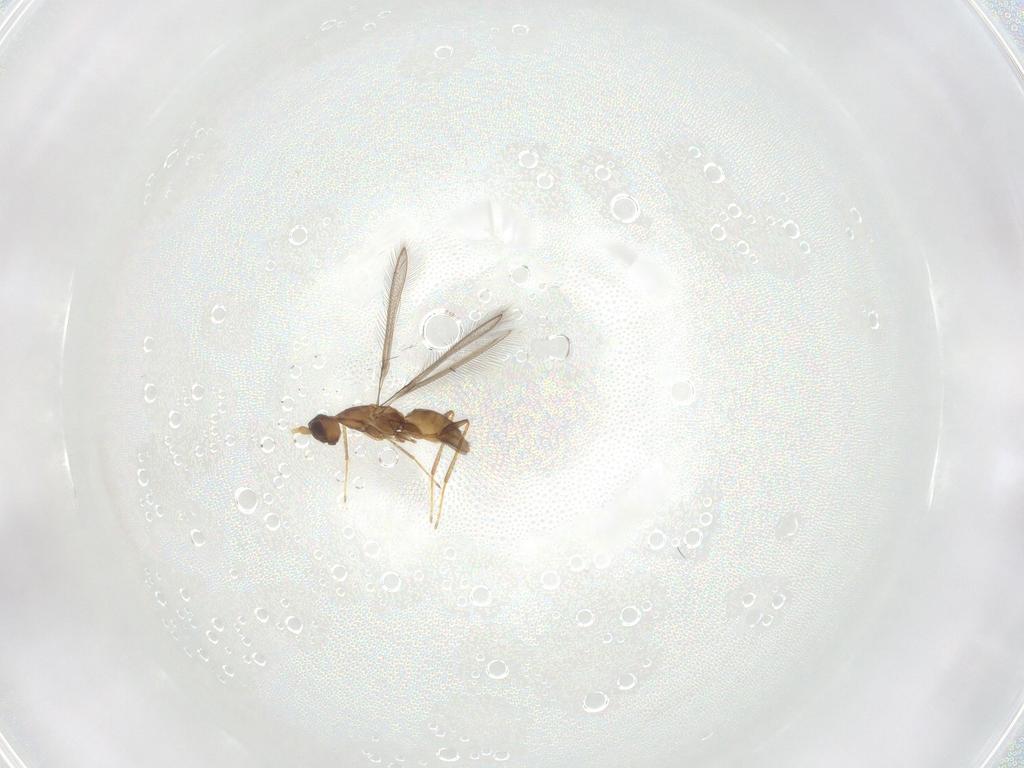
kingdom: Animalia
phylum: Arthropoda
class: Insecta
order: Hymenoptera
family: Mymaridae
